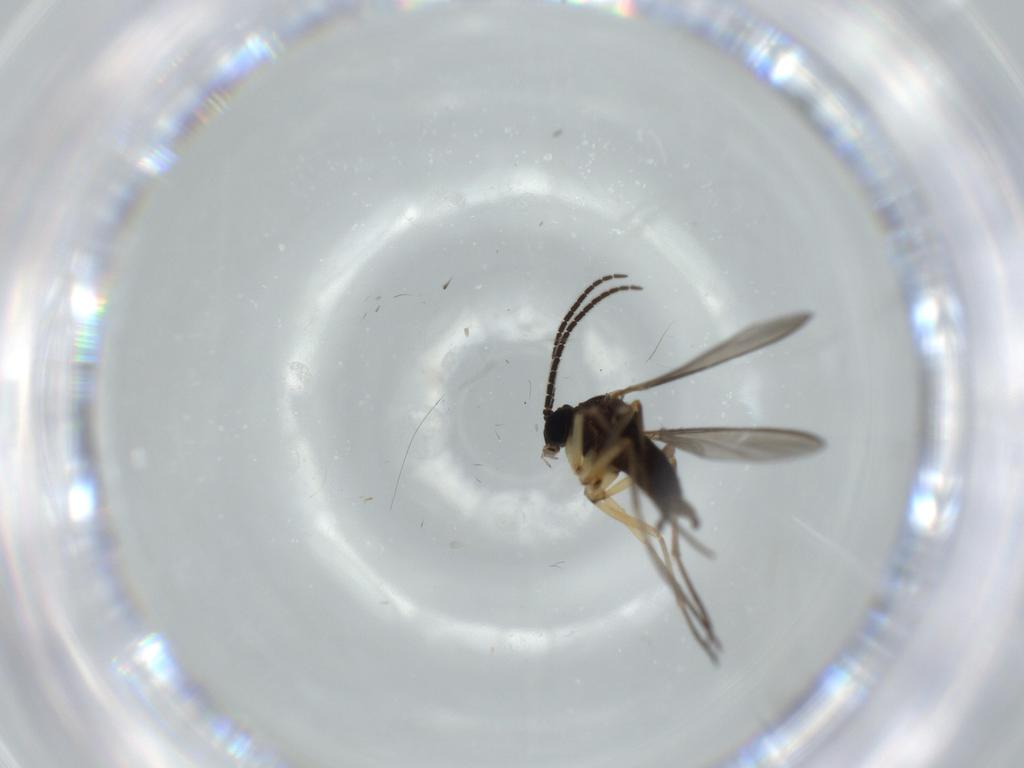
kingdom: Animalia
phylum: Arthropoda
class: Insecta
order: Diptera
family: Sciaridae
